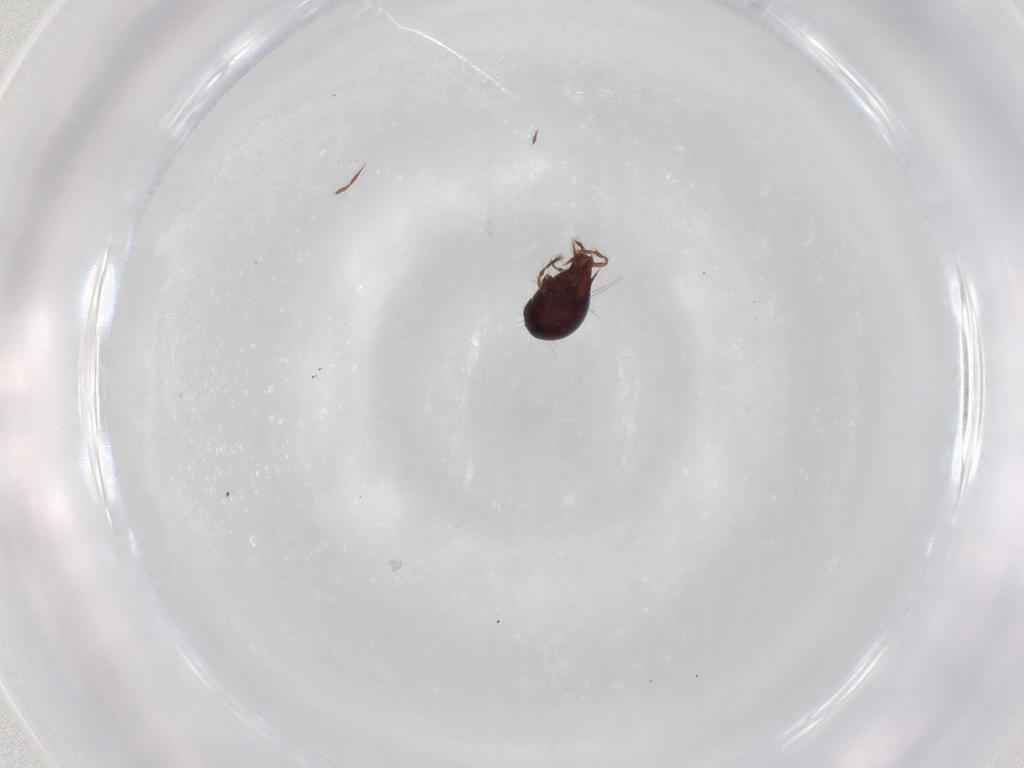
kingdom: Animalia
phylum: Arthropoda
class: Arachnida
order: Sarcoptiformes
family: Ceratoppiidae
